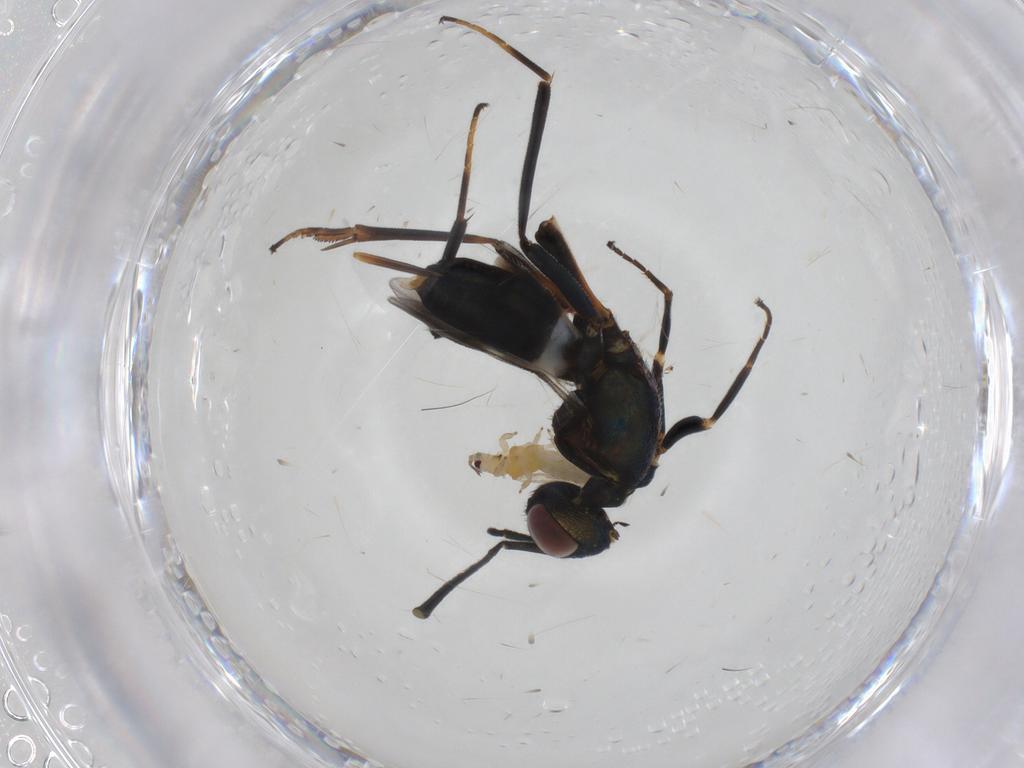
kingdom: Animalia
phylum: Arthropoda
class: Insecta
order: Hymenoptera
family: Eupelmidae
